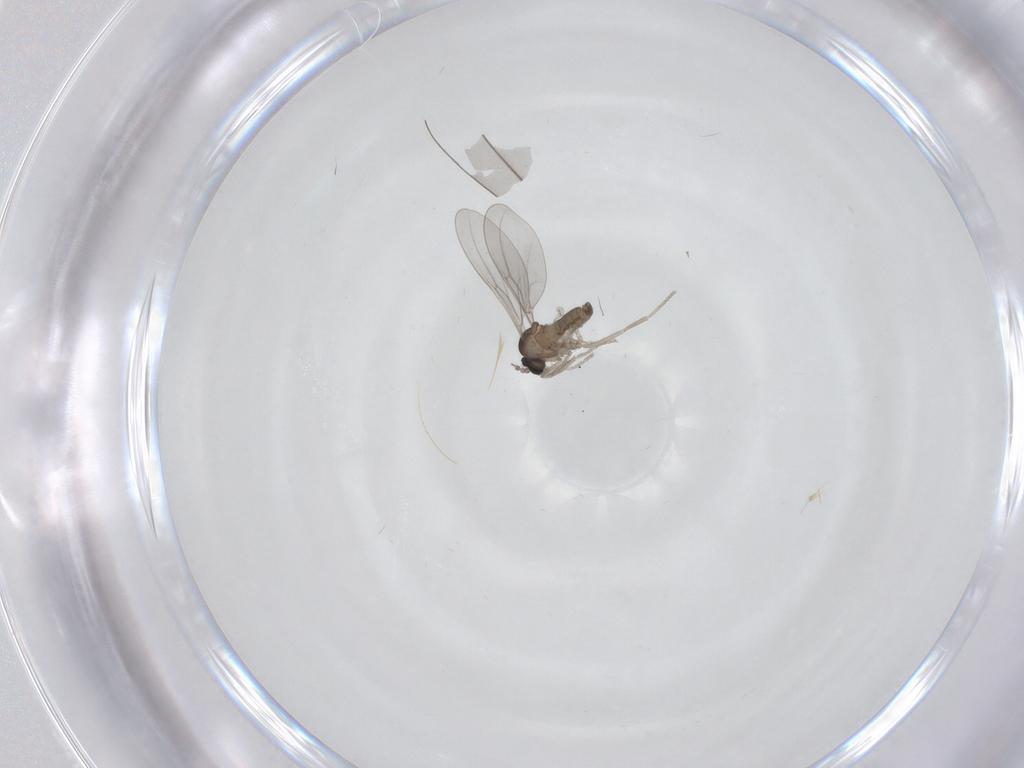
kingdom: Animalia
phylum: Arthropoda
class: Insecta
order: Diptera
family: Cecidomyiidae
